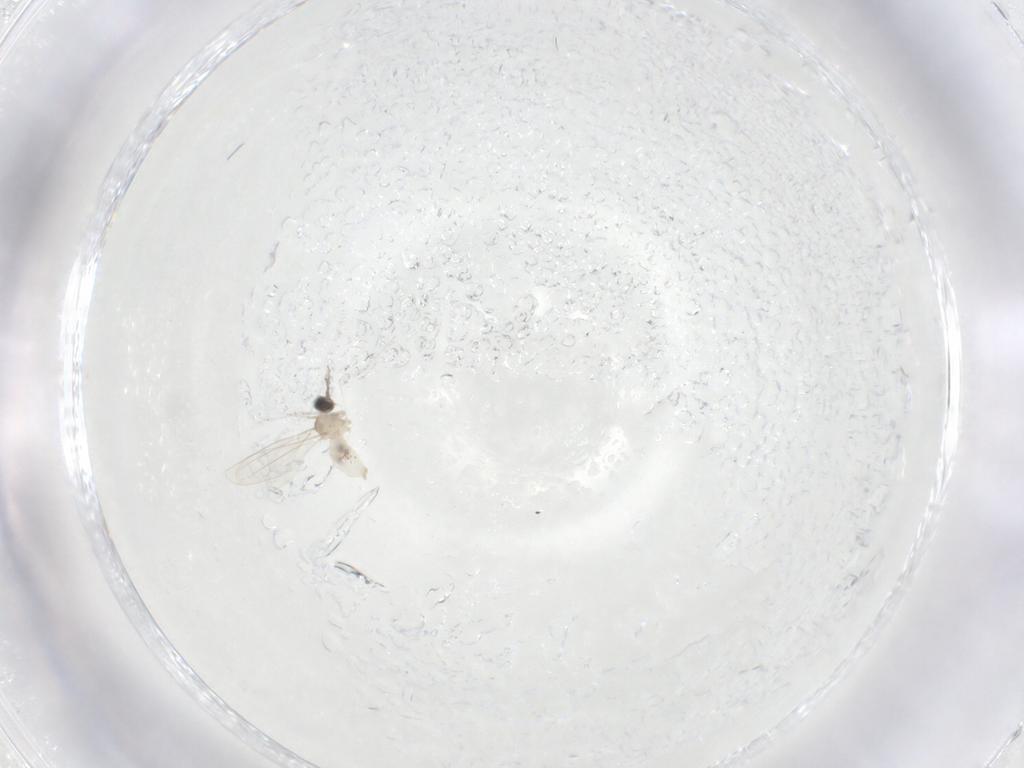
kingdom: Animalia
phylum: Arthropoda
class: Insecta
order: Diptera
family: Cecidomyiidae
